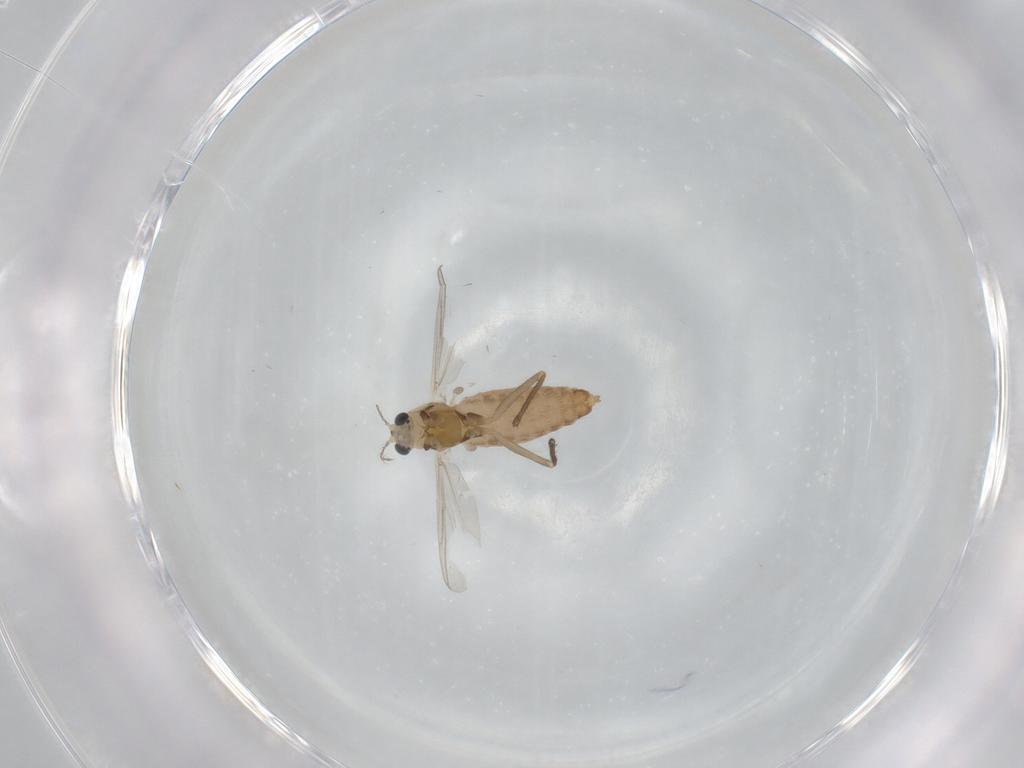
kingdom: Animalia
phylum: Arthropoda
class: Insecta
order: Diptera
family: Chironomidae
